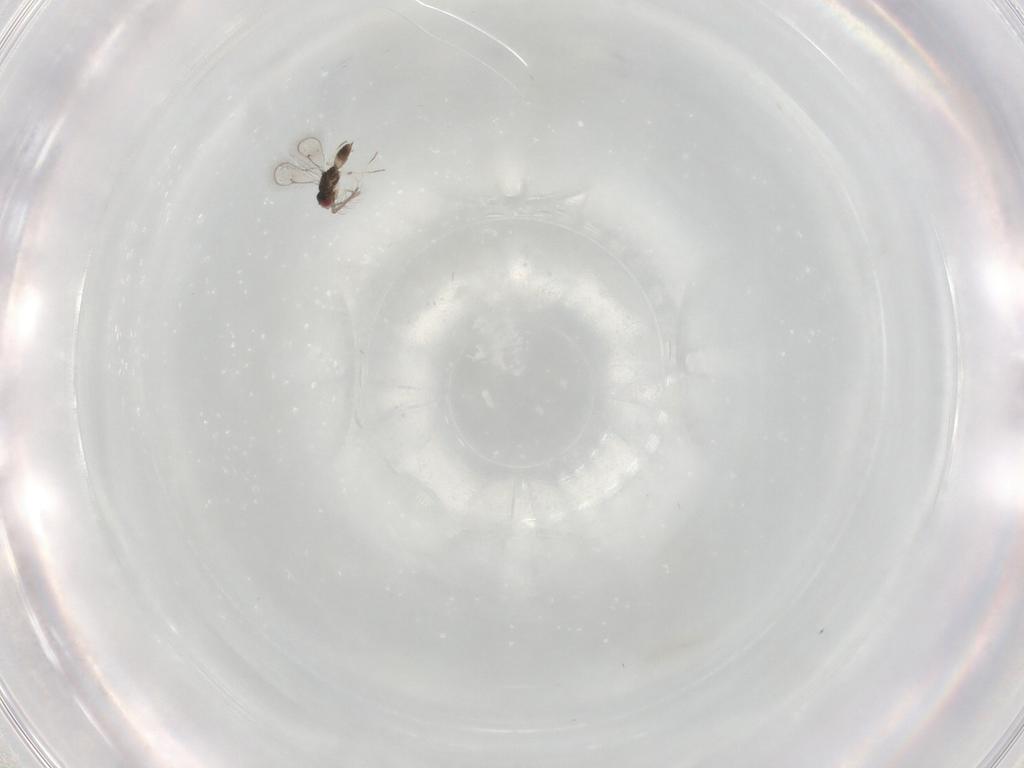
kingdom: Animalia
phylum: Arthropoda
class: Insecta
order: Hymenoptera
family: Eulophidae
